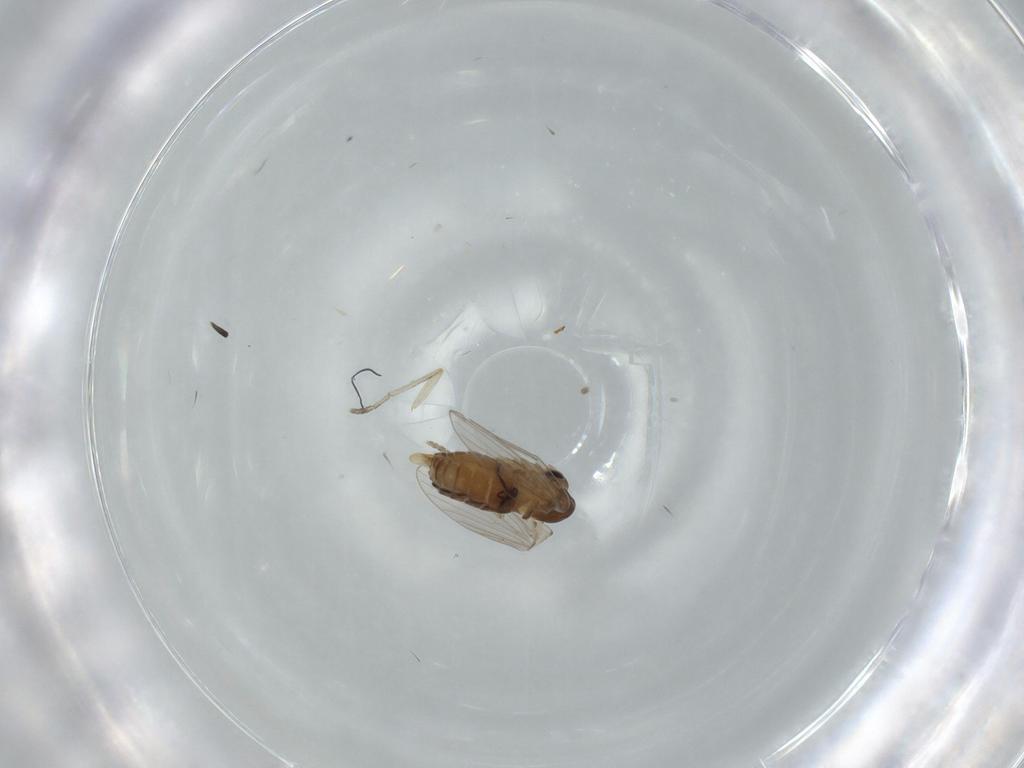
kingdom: Animalia
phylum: Arthropoda
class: Insecta
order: Diptera
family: Psychodidae
